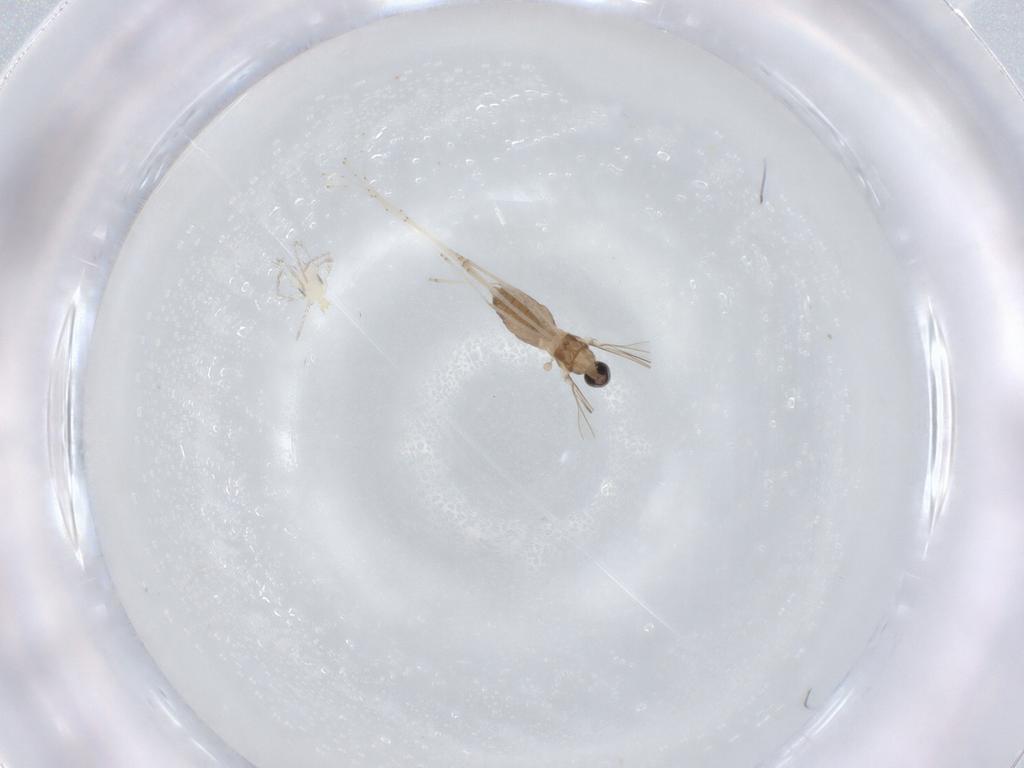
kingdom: Animalia
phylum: Arthropoda
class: Insecta
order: Diptera
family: Cecidomyiidae
